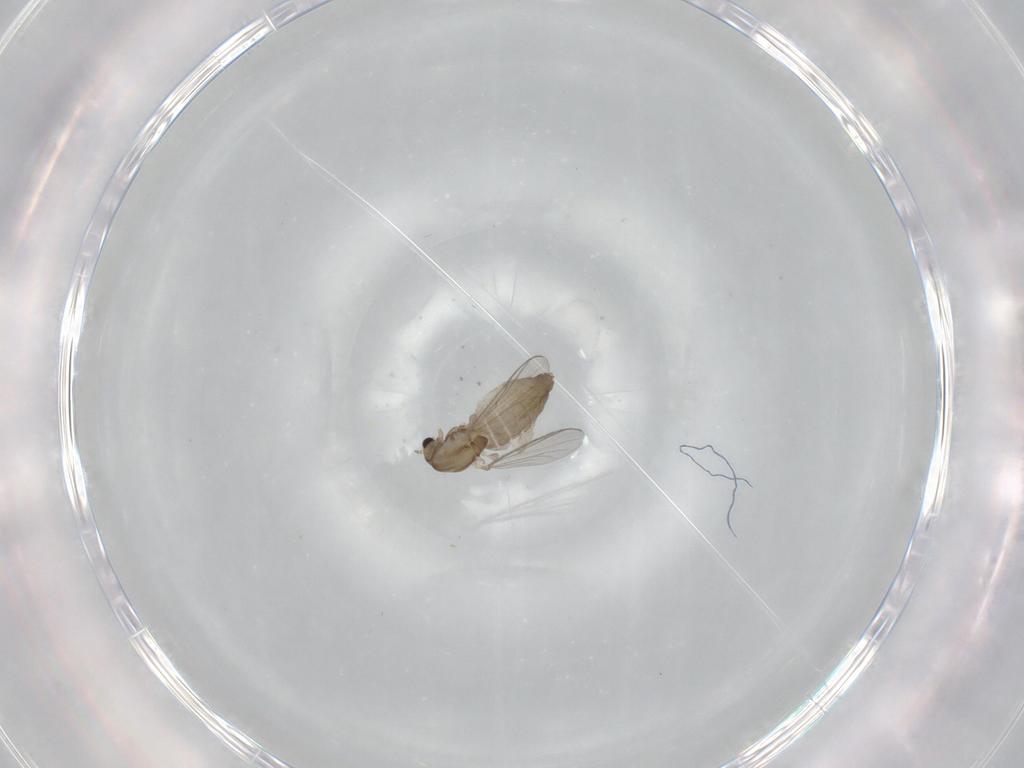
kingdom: Animalia
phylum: Arthropoda
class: Insecta
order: Diptera
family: Chironomidae
